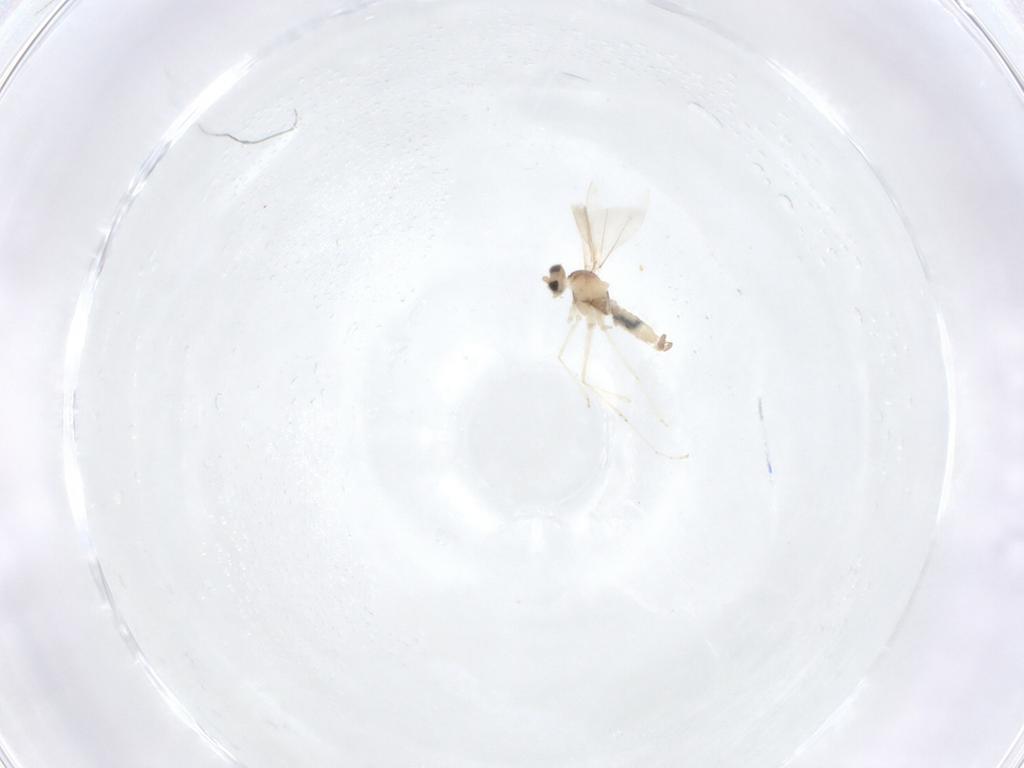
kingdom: Animalia
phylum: Arthropoda
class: Insecta
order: Diptera
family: Cecidomyiidae
